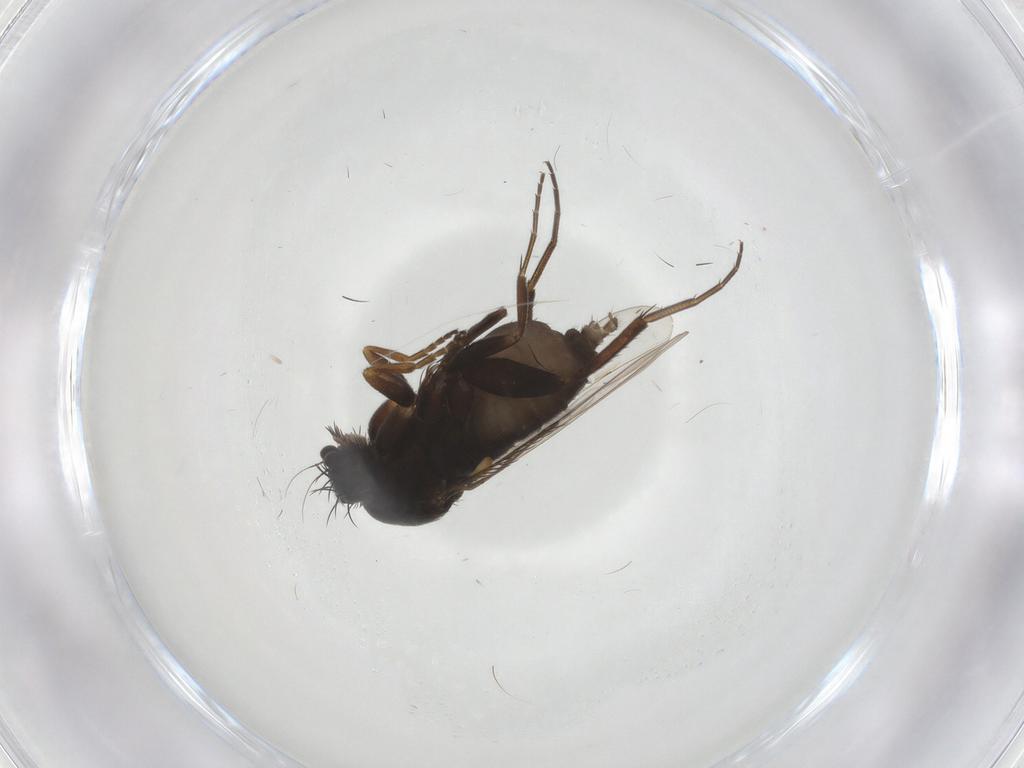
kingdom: Animalia
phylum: Arthropoda
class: Insecta
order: Diptera
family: Phoridae
